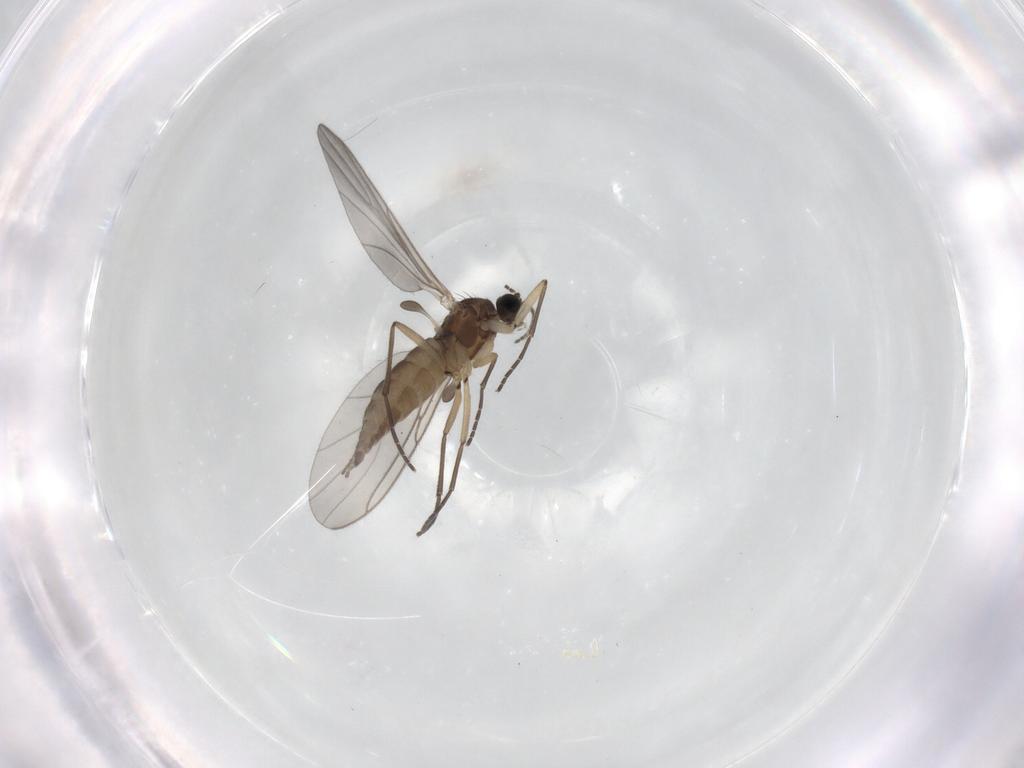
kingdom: Animalia
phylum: Arthropoda
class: Insecta
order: Diptera
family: Sciaridae
